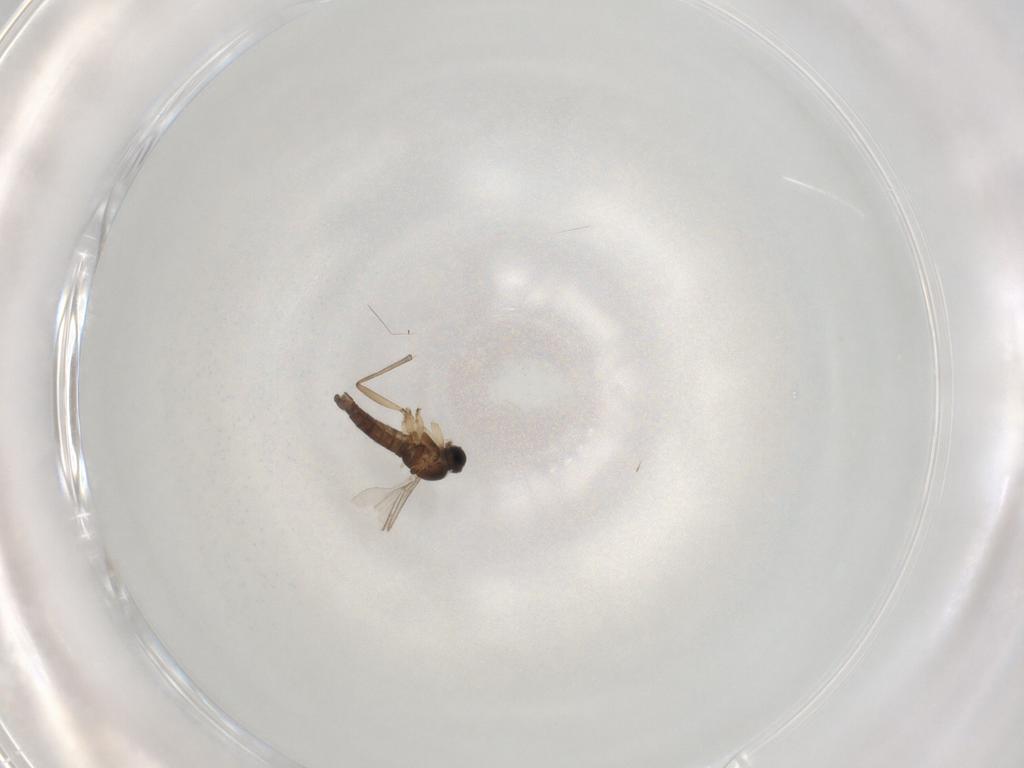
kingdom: Animalia
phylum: Arthropoda
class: Insecta
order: Diptera
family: Sciaridae
